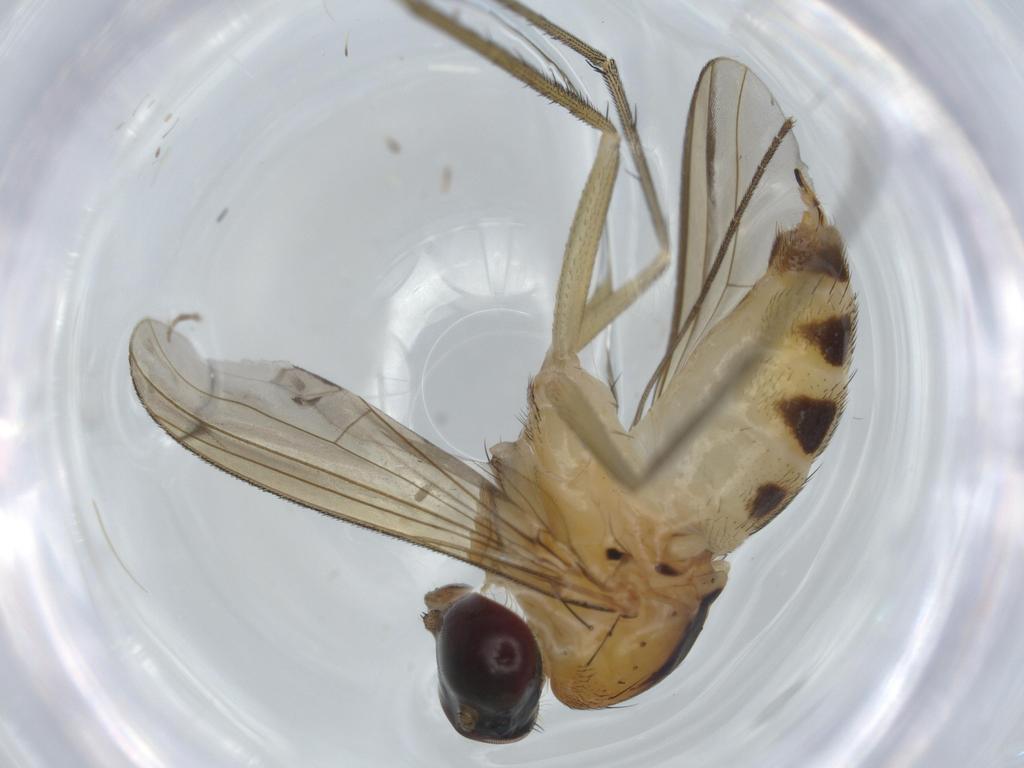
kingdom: Animalia
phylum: Arthropoda
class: Insecta
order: Diptera
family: Dolichopodidae
